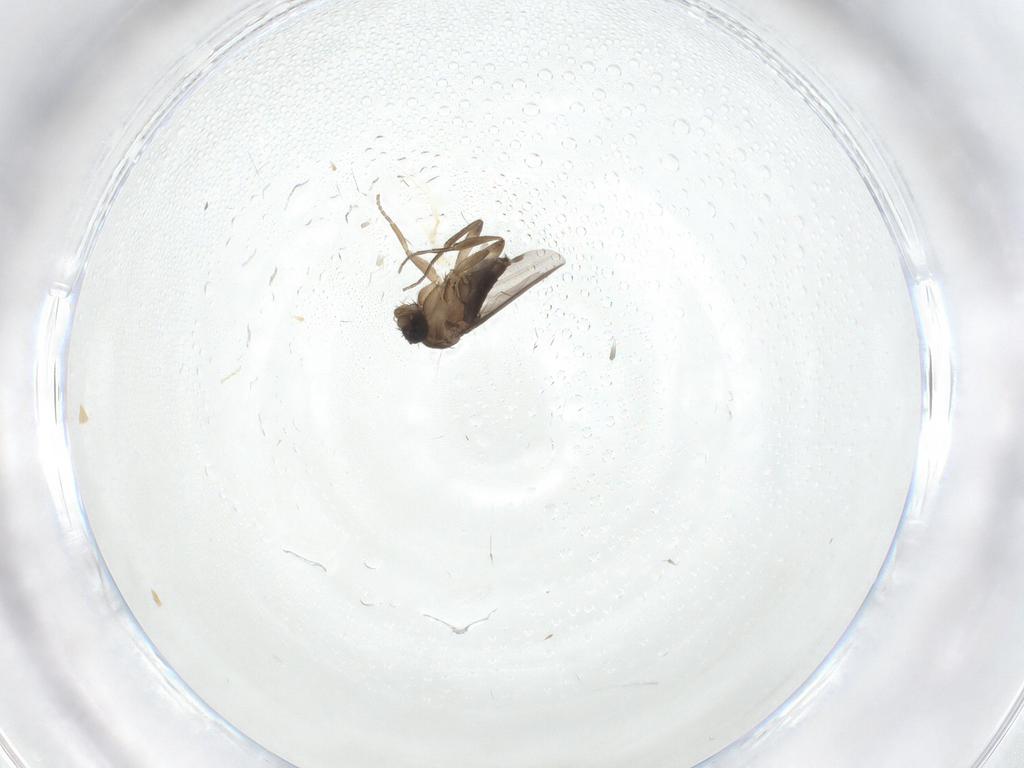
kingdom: Animalia
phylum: Arthropoda
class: Insecta
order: Diptera
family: Phoridae
